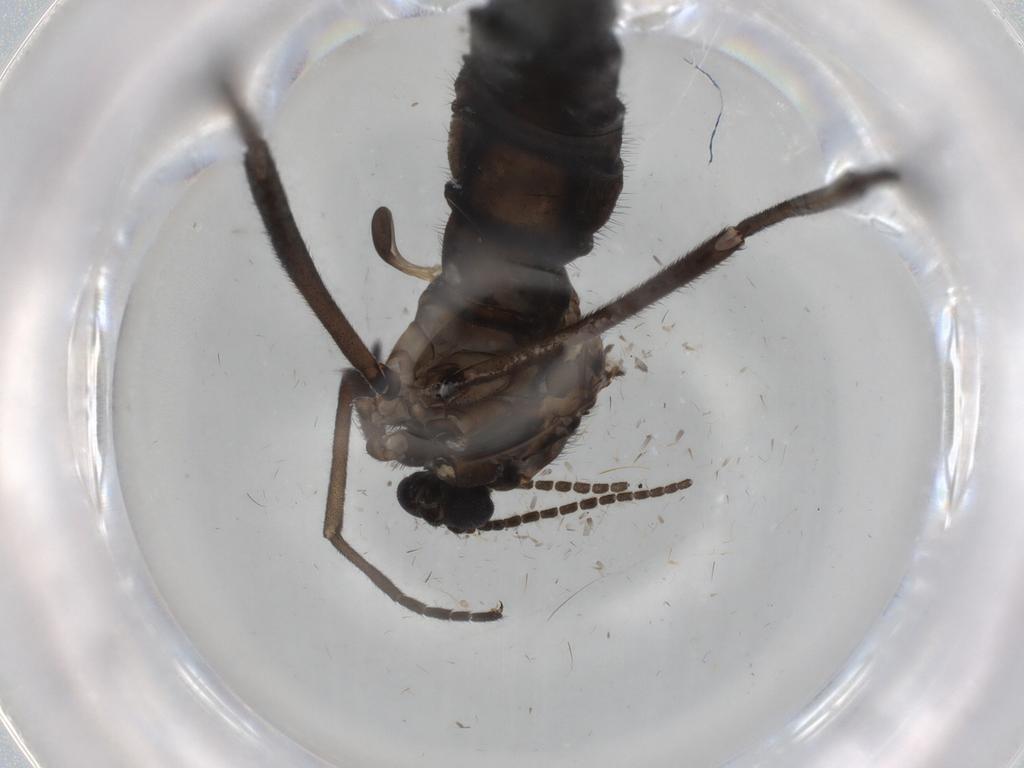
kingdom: Animalia
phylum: Arthropoda
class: Insecta
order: Diptera
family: Sciaridae
